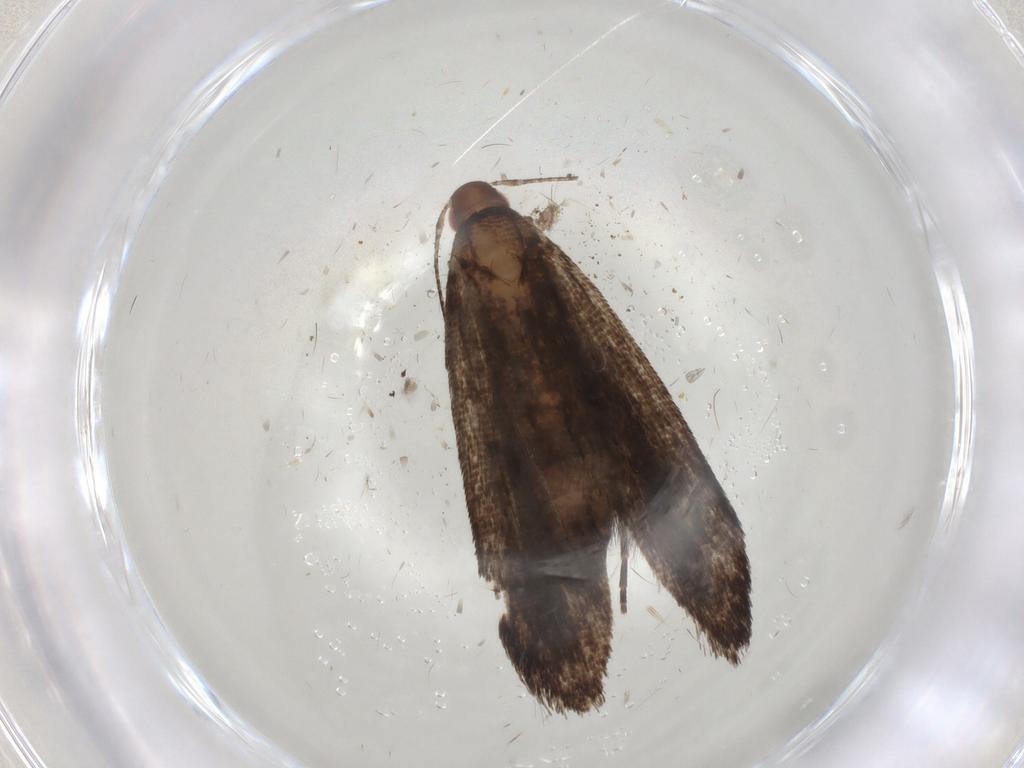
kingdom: Animalia
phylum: Arthropoda
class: Insecta
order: Lepidoptera
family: Gelechiidae
